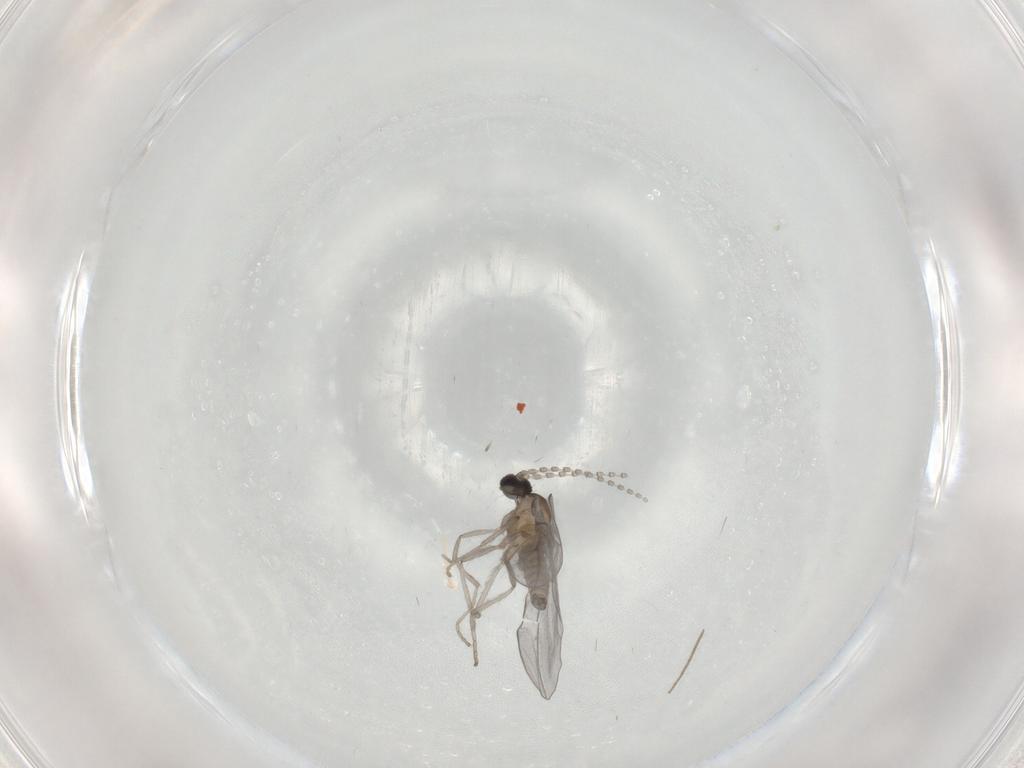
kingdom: Animalia
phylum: Arthropoda
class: Insecta
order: Diptera
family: Cecidomyiidae
